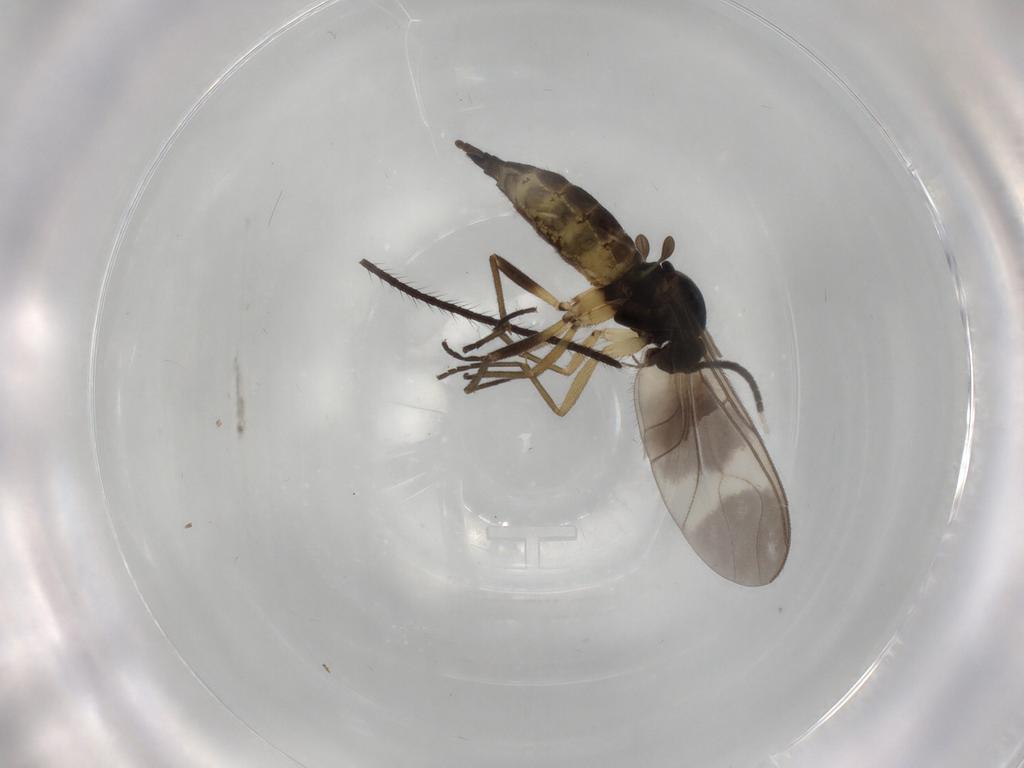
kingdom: Animalia
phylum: Arthropoda
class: Insecta
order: Diptera
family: Sciaridae
